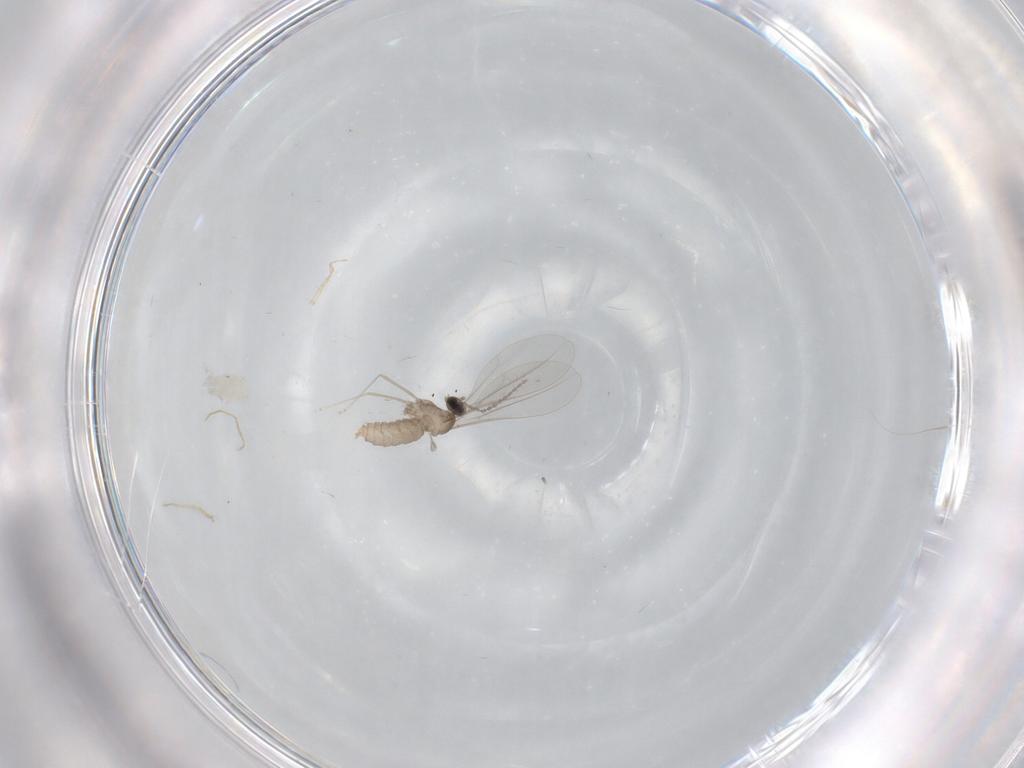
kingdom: Animalia
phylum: Arthropoda
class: Insecta
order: Diptera
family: Cecidomyiidae
